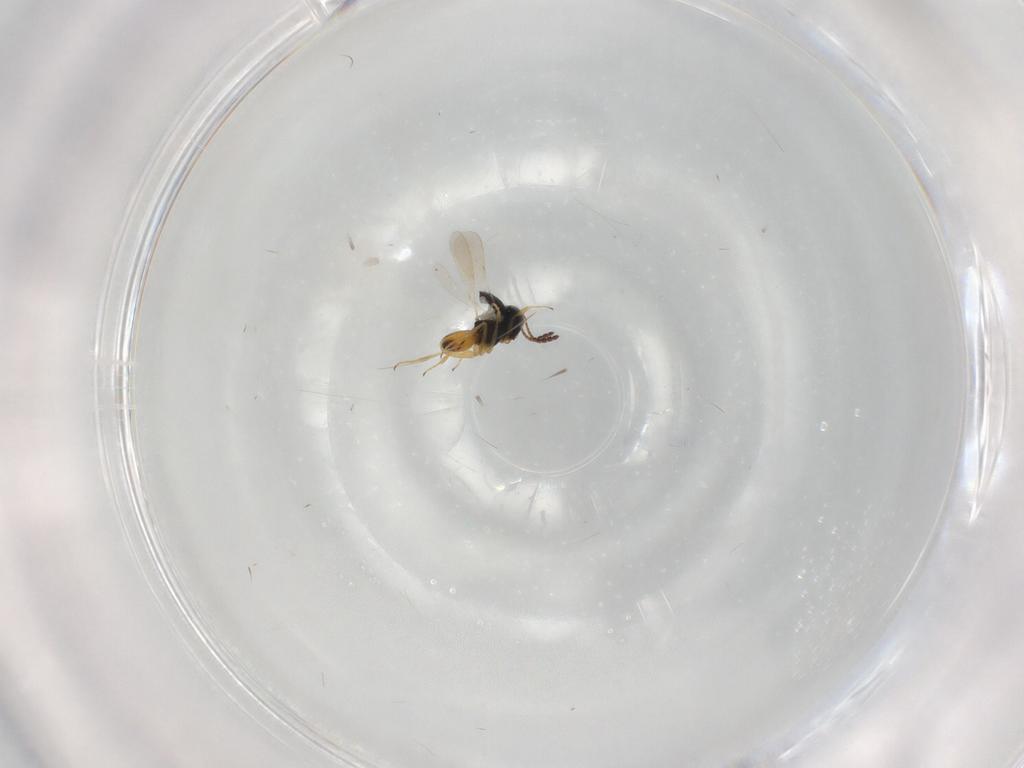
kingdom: Animalia
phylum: Arthropoda
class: Insecta
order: Hymenoptera
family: Scelionidae
